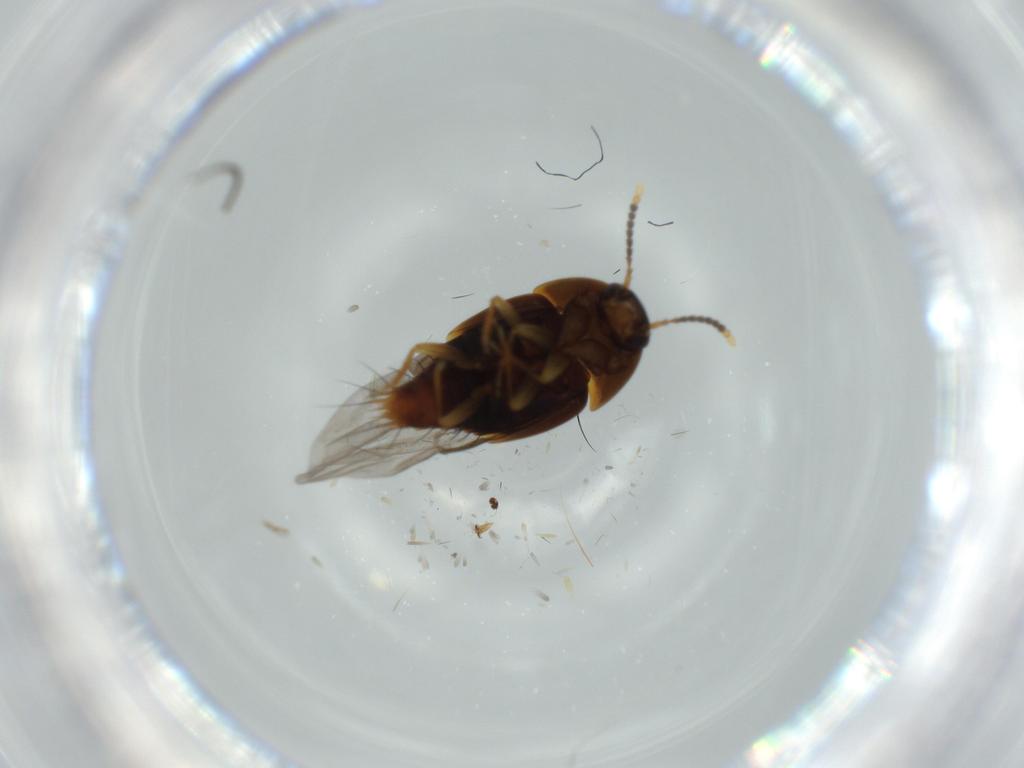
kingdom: Animalia
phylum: Arthropoda
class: Insecta
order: Coleoptera
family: Staphylinidae
